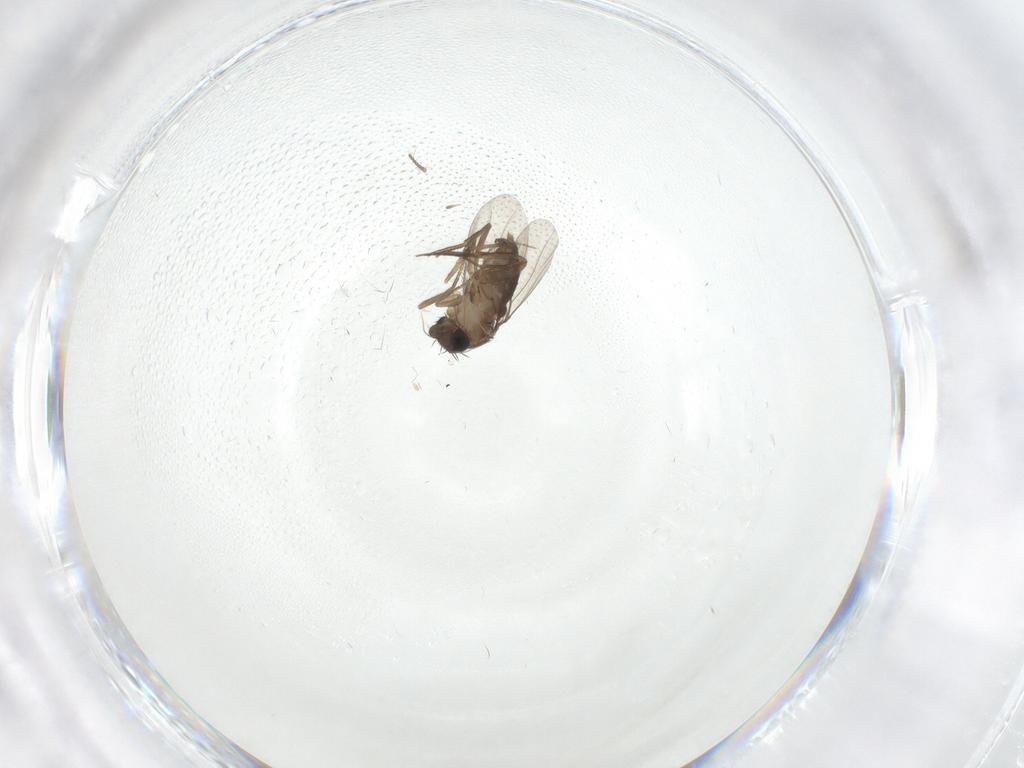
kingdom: Animalia
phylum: Arthropoda
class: Insecta
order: Diptera
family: Phoridae
